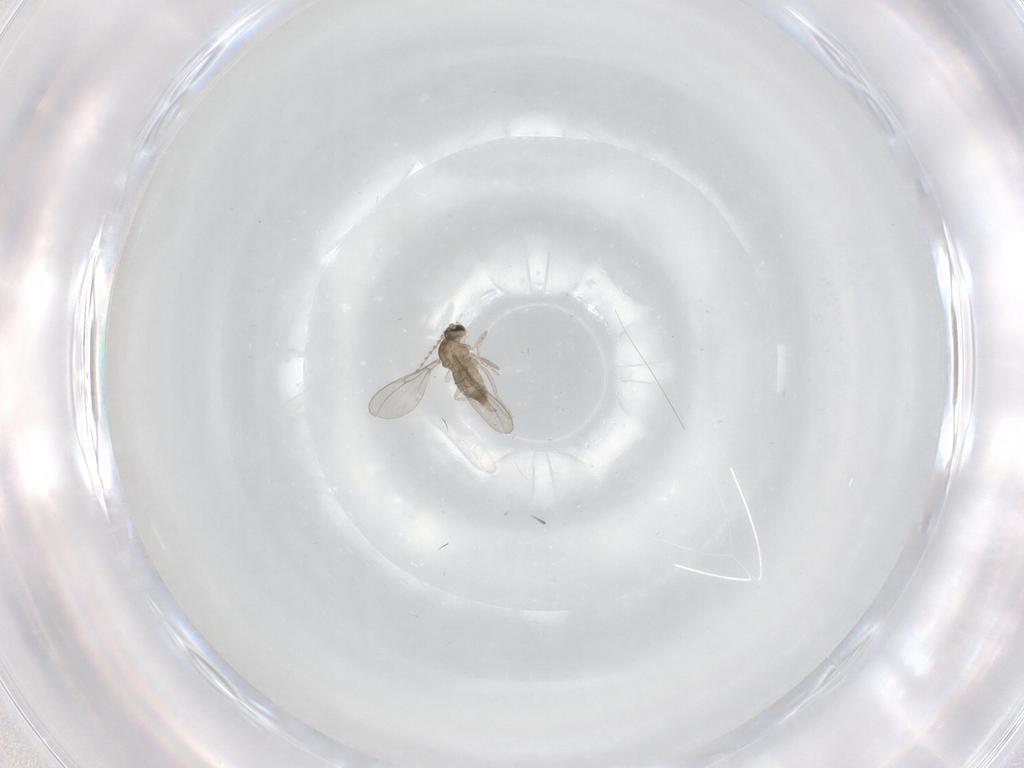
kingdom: Animalia
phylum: Arthropoda
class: Insecta
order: Diptera
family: Cecidomyiidae
